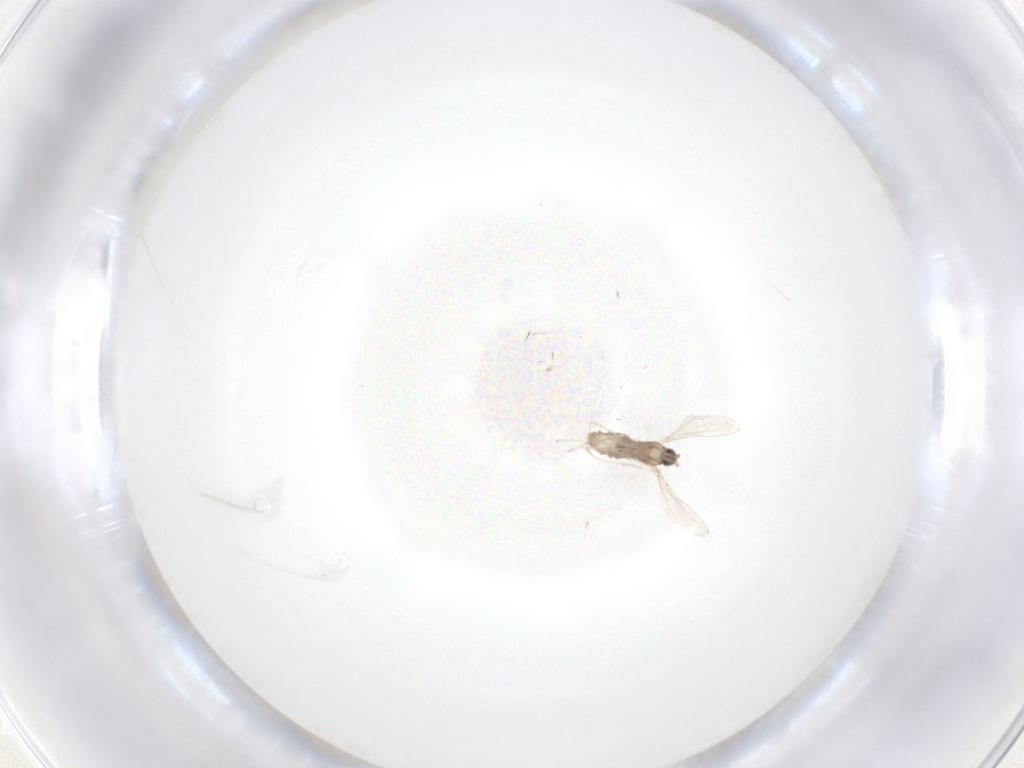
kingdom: Animalia
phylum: Arthropoda
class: Insecta
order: Diptera
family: Cecidomyiidae
